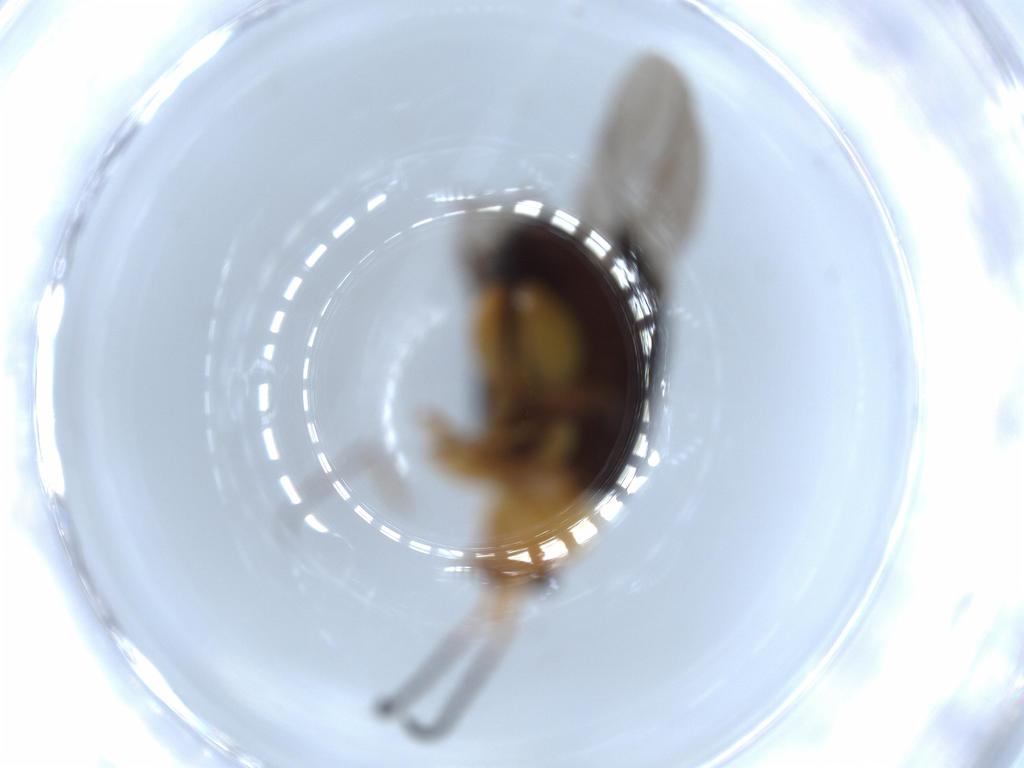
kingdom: Animalia
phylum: Arthropoda
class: Insecta
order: Coleoptera
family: Chrysomelidae
